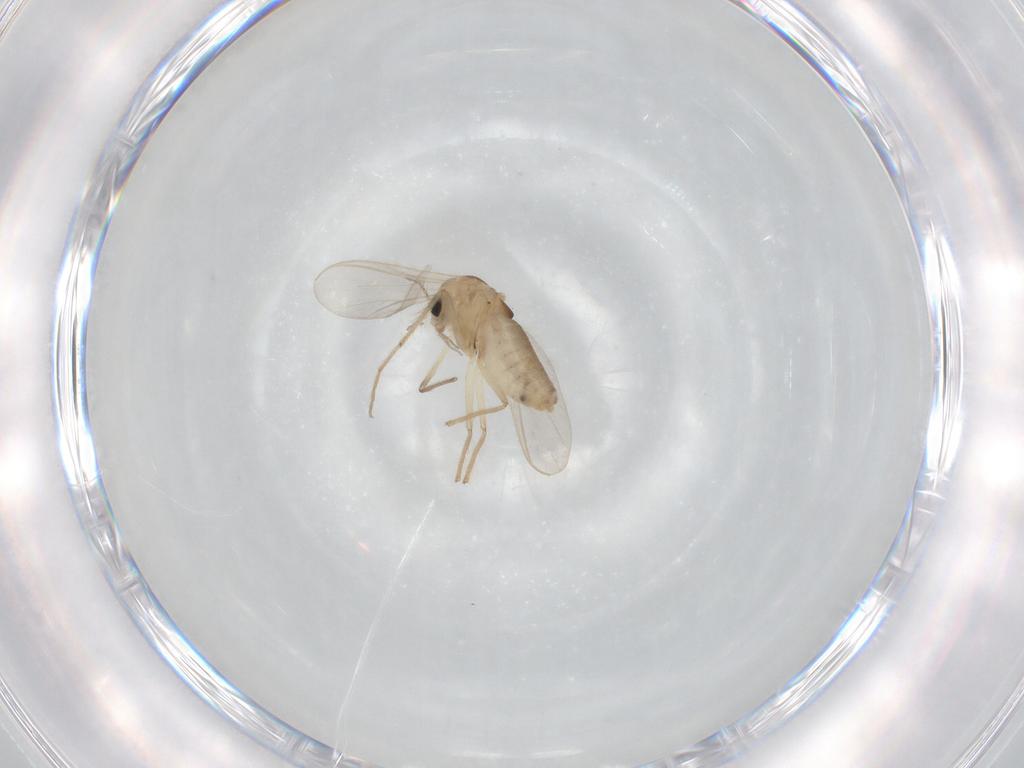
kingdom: Animalia
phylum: Arthropoda
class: Insecta
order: Diptera
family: Chironomidae
